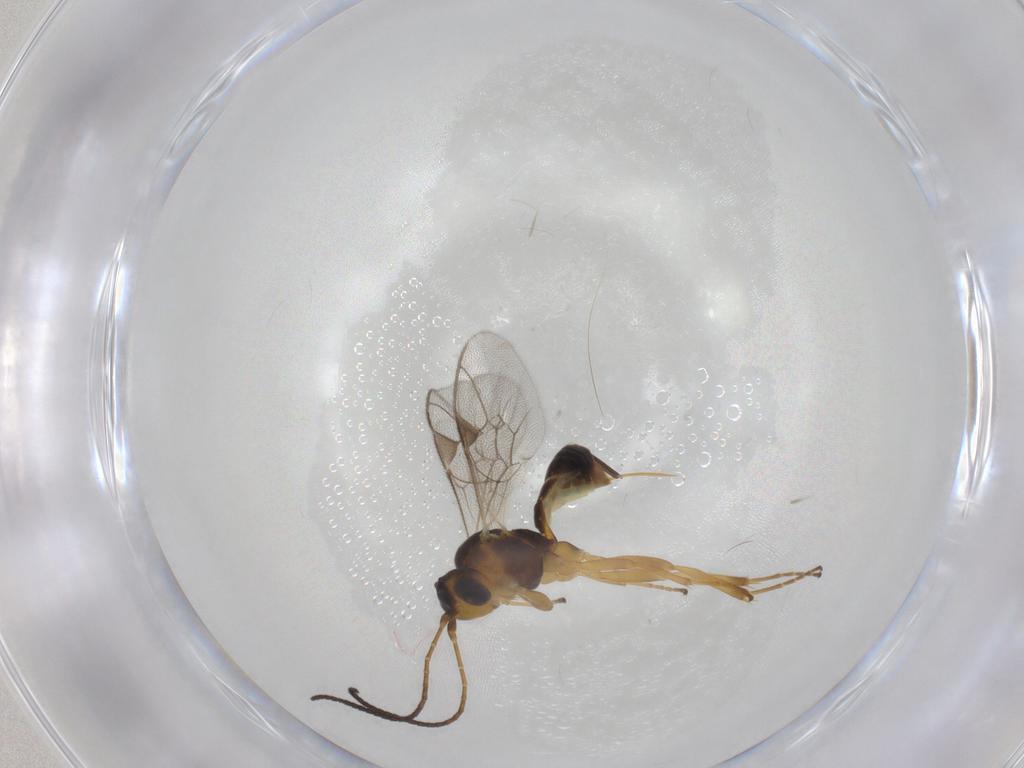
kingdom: Animalia
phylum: Arthropoda
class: Insecta
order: Hymenoptera
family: Ichneumonidae
